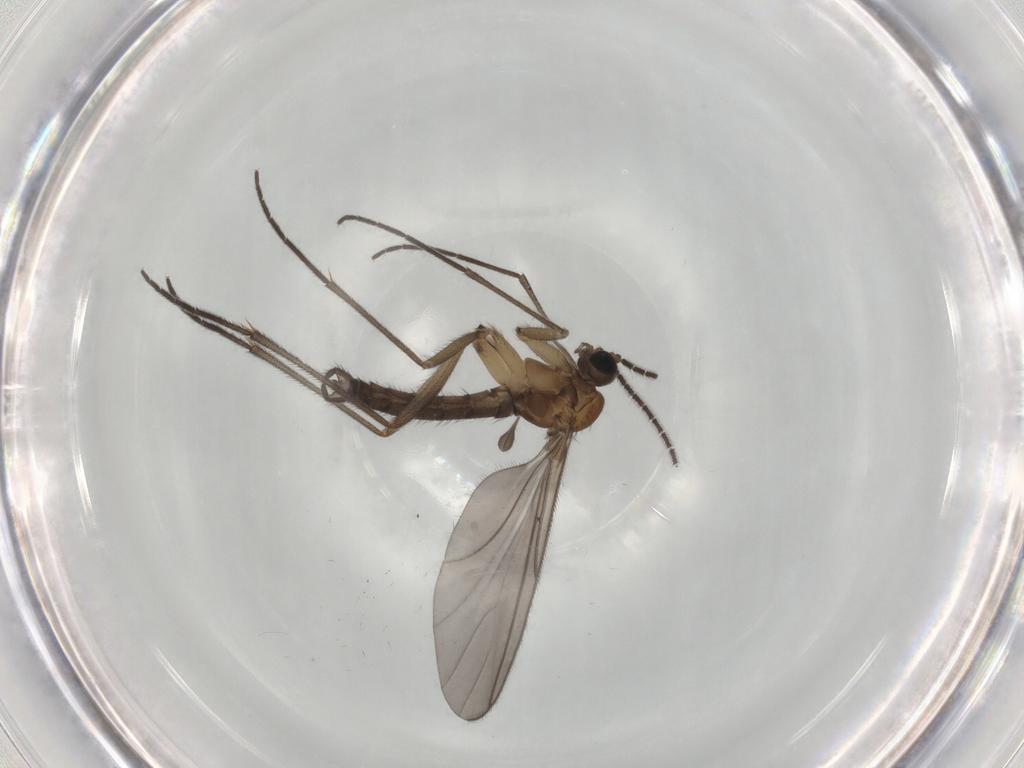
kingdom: Animalia
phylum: Arthropoda
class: Insecta
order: Diptera
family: Sciaridae
